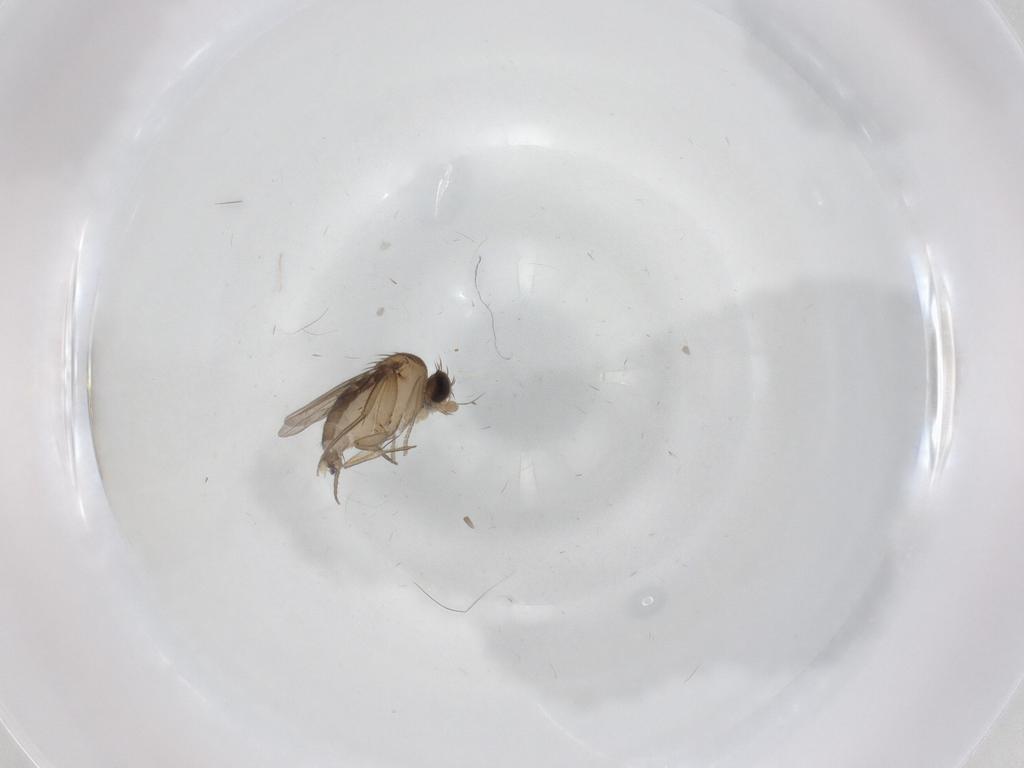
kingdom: Animalia
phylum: Arthropoda
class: Insecta
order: Diptera
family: Phoridae
